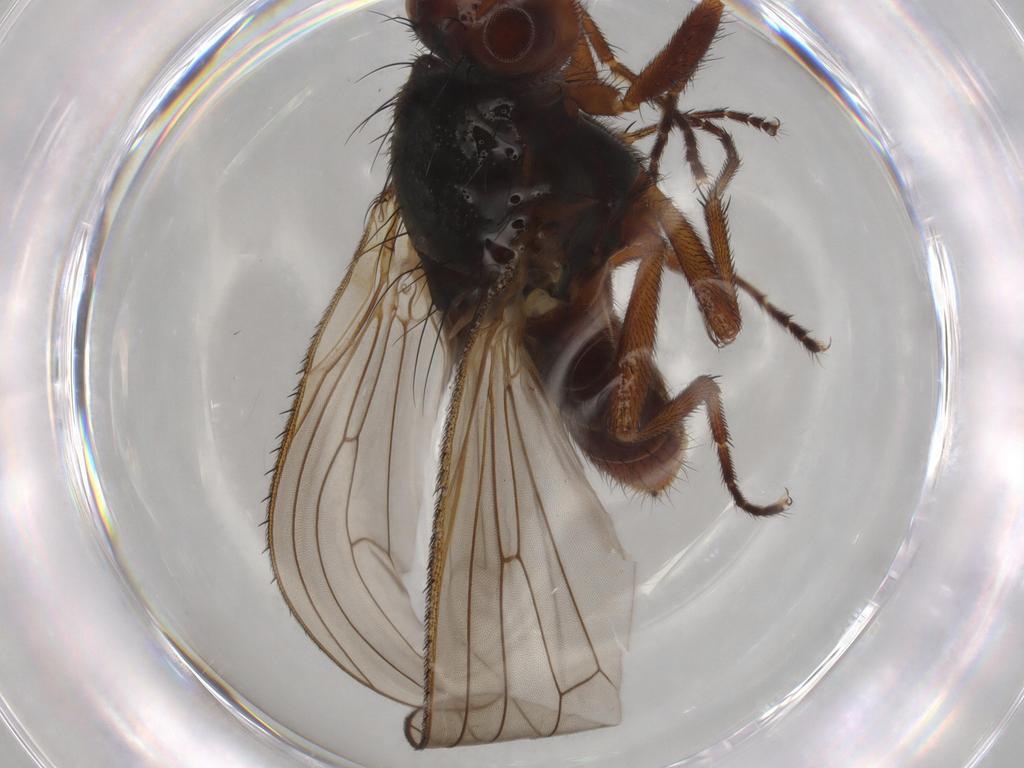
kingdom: Animalia
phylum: Arthropoda
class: Insecta
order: Diptera
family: Heleomyzidae
